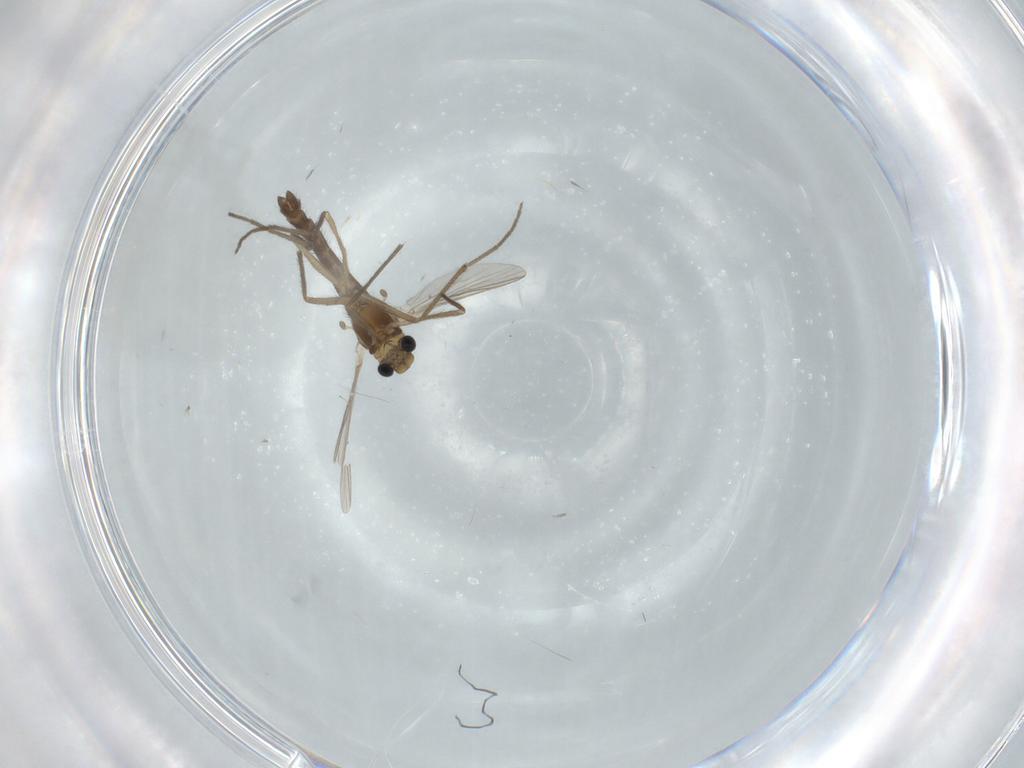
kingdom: Animalia
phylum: Arthropoda
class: Insecta
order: Diptera
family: Chironomidae
